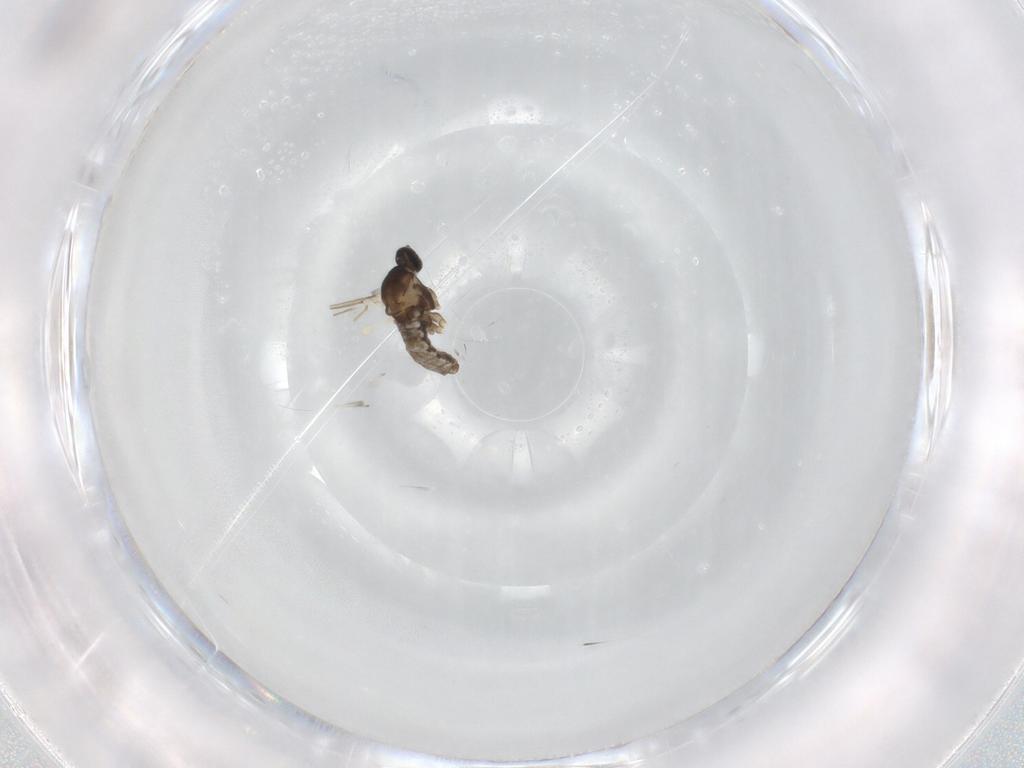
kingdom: Animalia
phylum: Arthropoda
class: Insecta
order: Diptera
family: Cecidomyiidae
